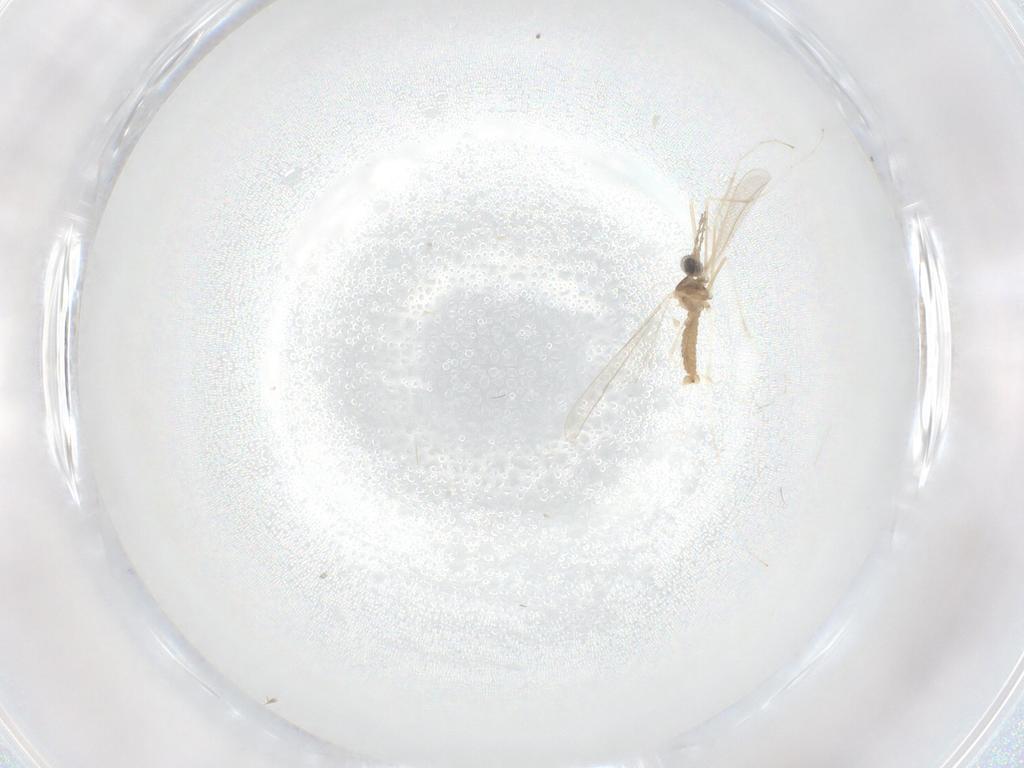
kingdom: Animalia
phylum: Arthropoda
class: Insecta
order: Diptera
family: Cecidomyiidae
